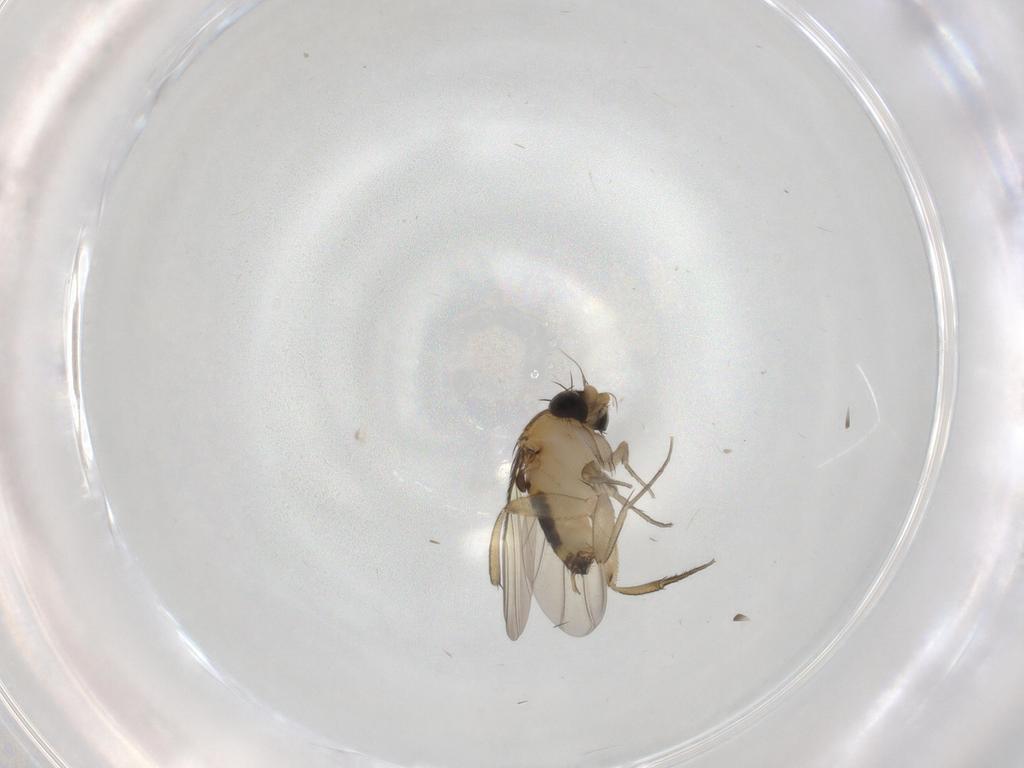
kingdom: Animalia
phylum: Arthropoda
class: Insecta
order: Diptera
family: Phoridae
